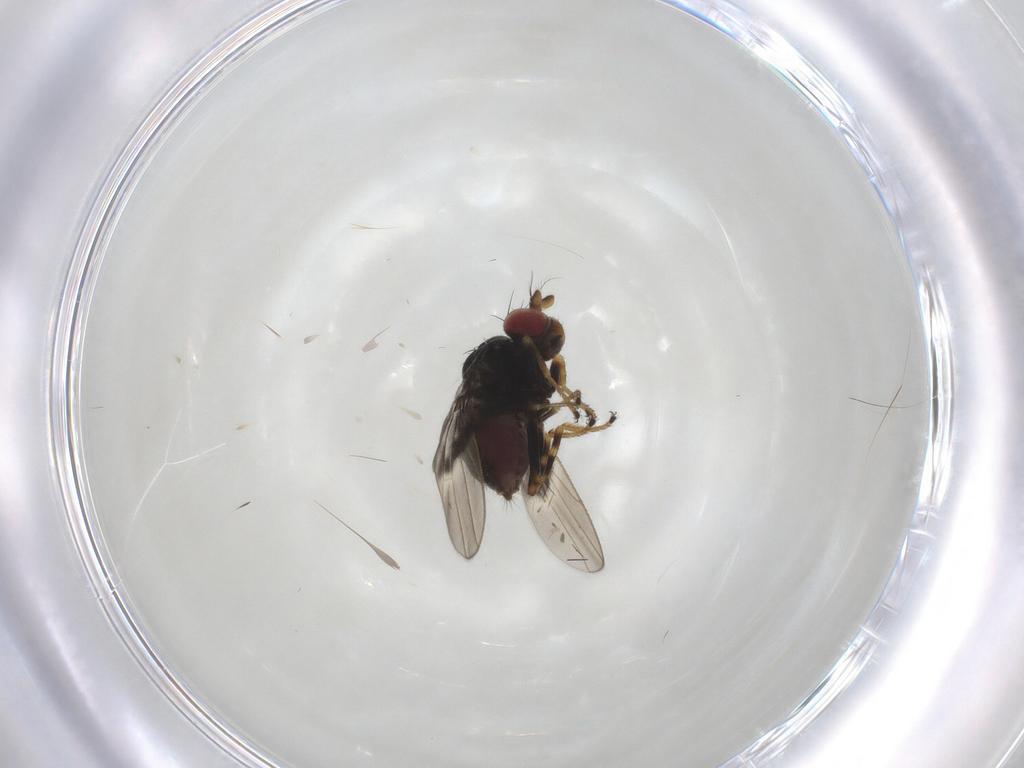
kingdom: Animalia
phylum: Arthropoda
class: Insecta
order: Diptera
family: Ephydridae
